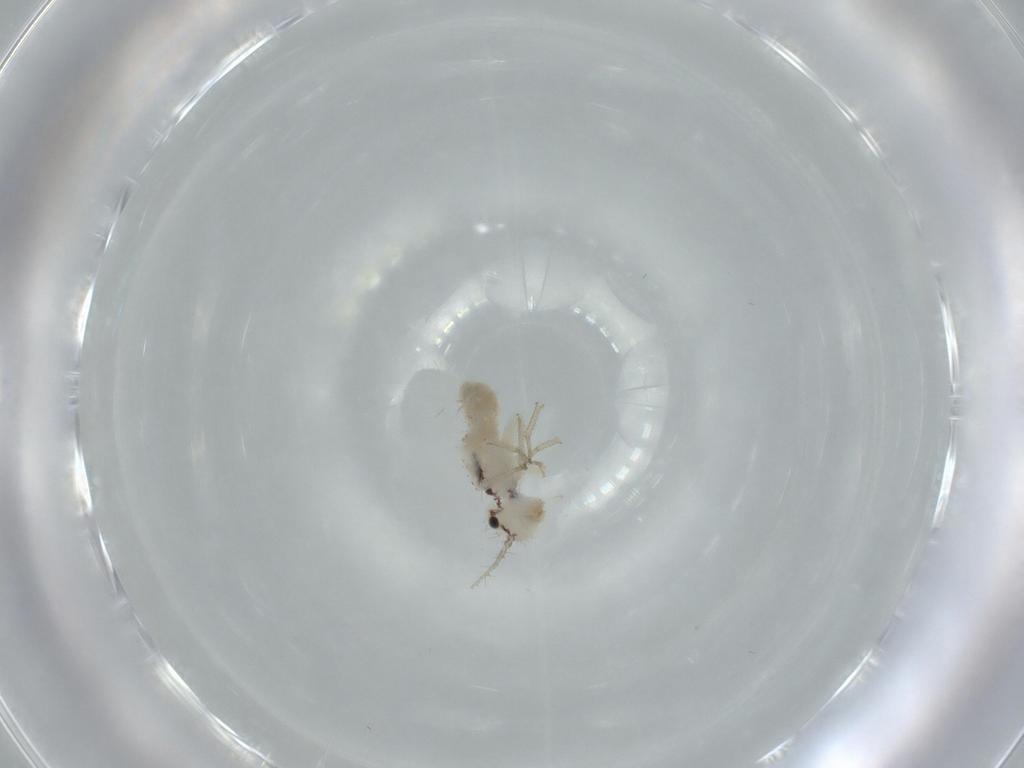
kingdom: Animalia
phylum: Arthropoda
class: Insecta
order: Psocodea
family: Pseudocaeciliidae
